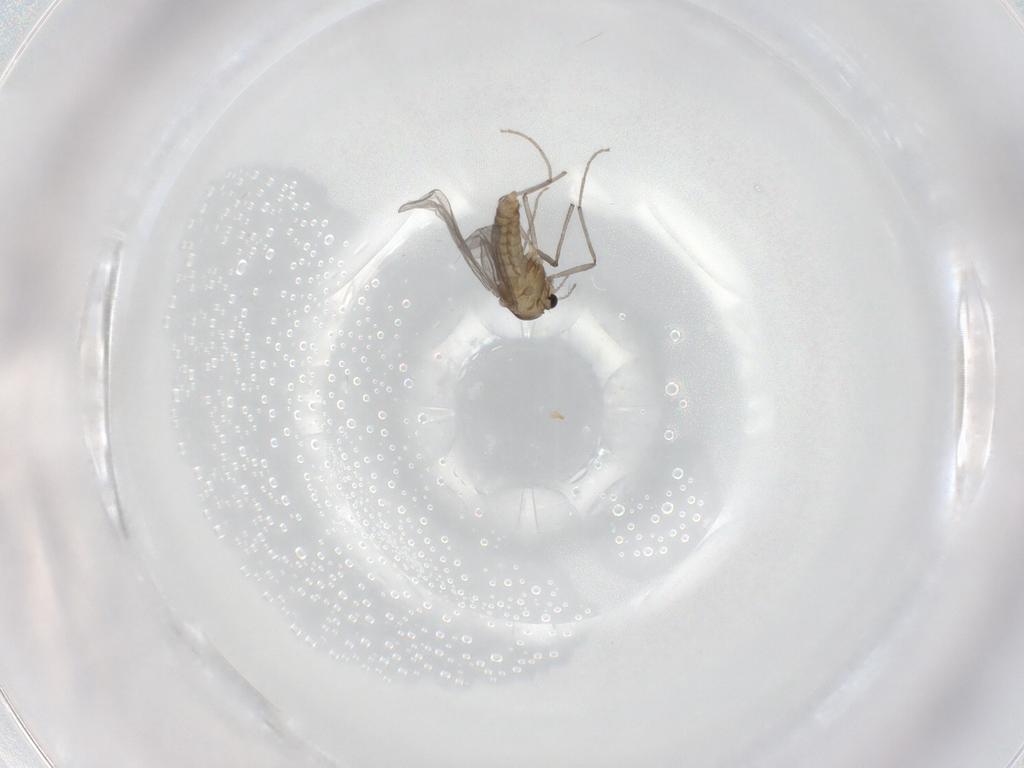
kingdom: Animalia
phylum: Arthropoda
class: Insecta
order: Diptera
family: Chironomidae
